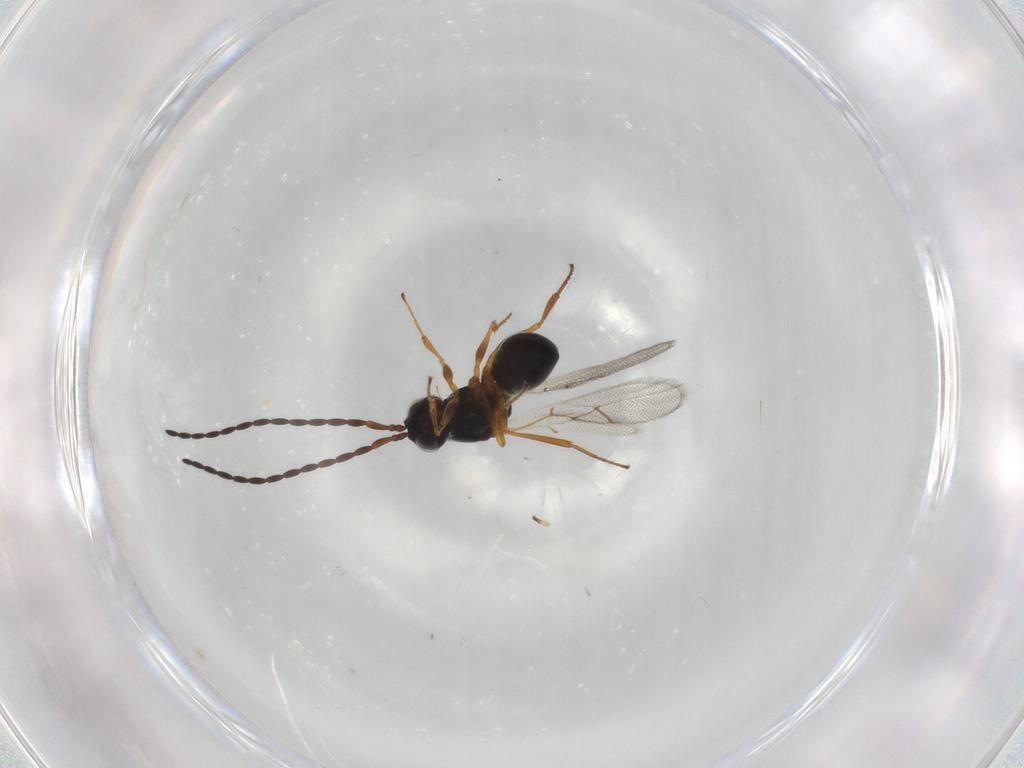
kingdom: Animalia
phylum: Arthropoda
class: Insecta
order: Hymenoptera
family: Figitidae
